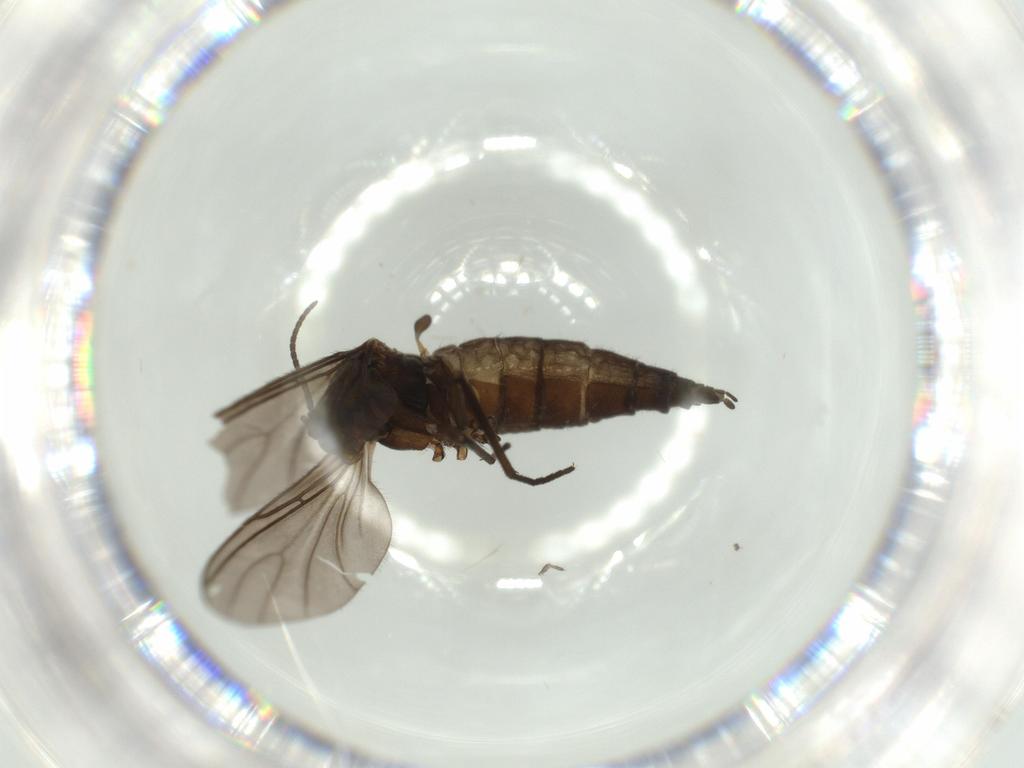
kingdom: Animalia
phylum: Arthropoda
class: Insecta
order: Diptera
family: Sciaridae
